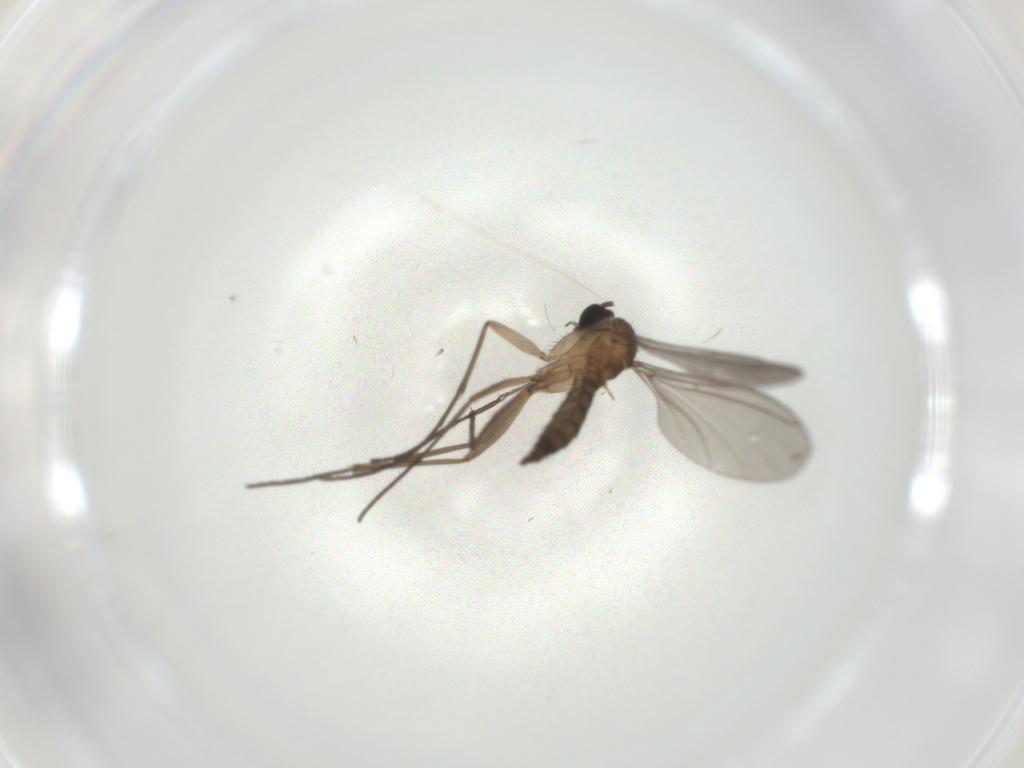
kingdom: Animalia
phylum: Arthropoda
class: Insecta
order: Diptera
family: Sciaridae
